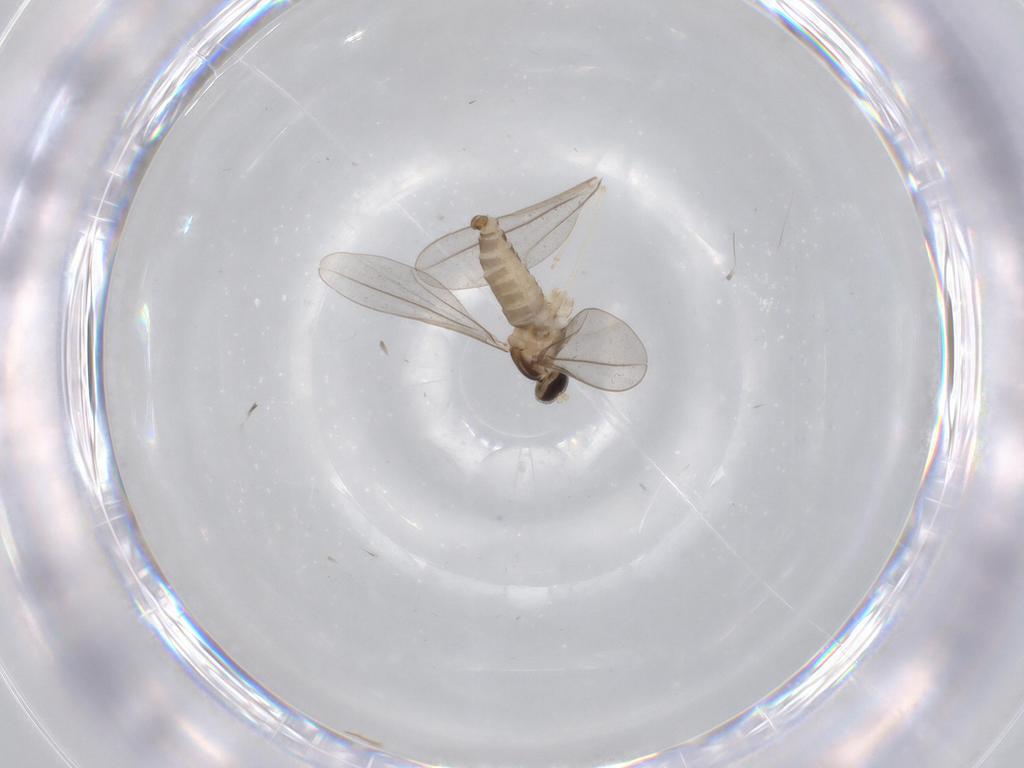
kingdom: Animalia
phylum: Arthropoda
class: Insecta
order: Diptera
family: Cecidomyiidae
